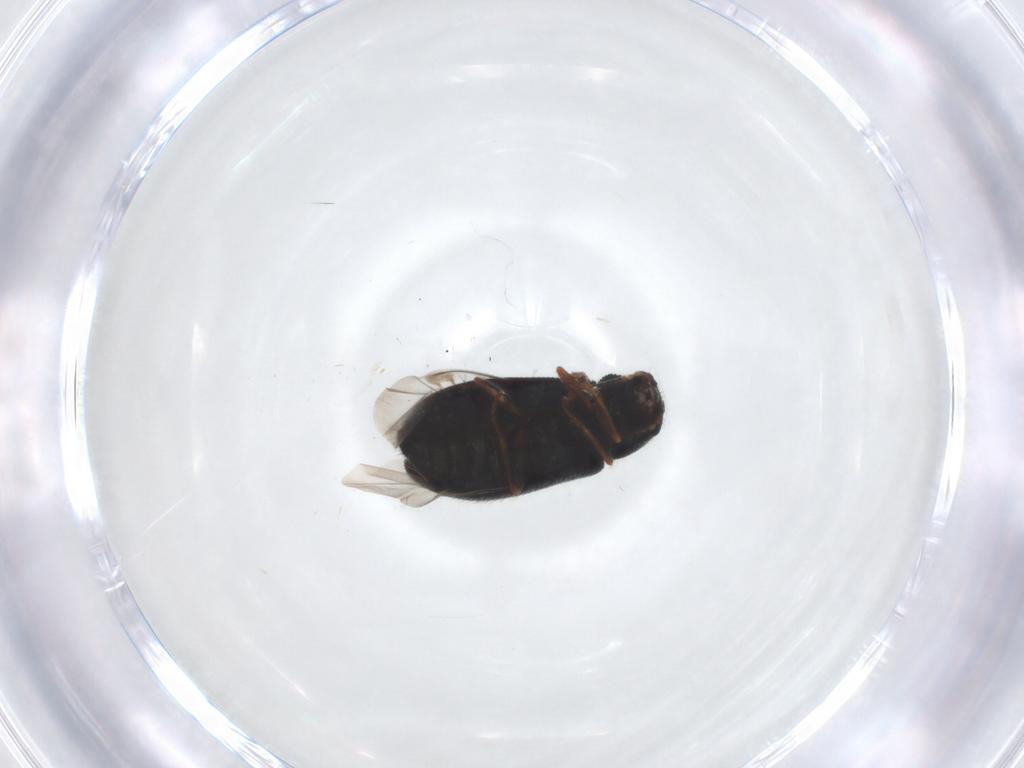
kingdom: Animalia
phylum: Arthropoda
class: Insecta
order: Coleoptera
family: Melyridae
